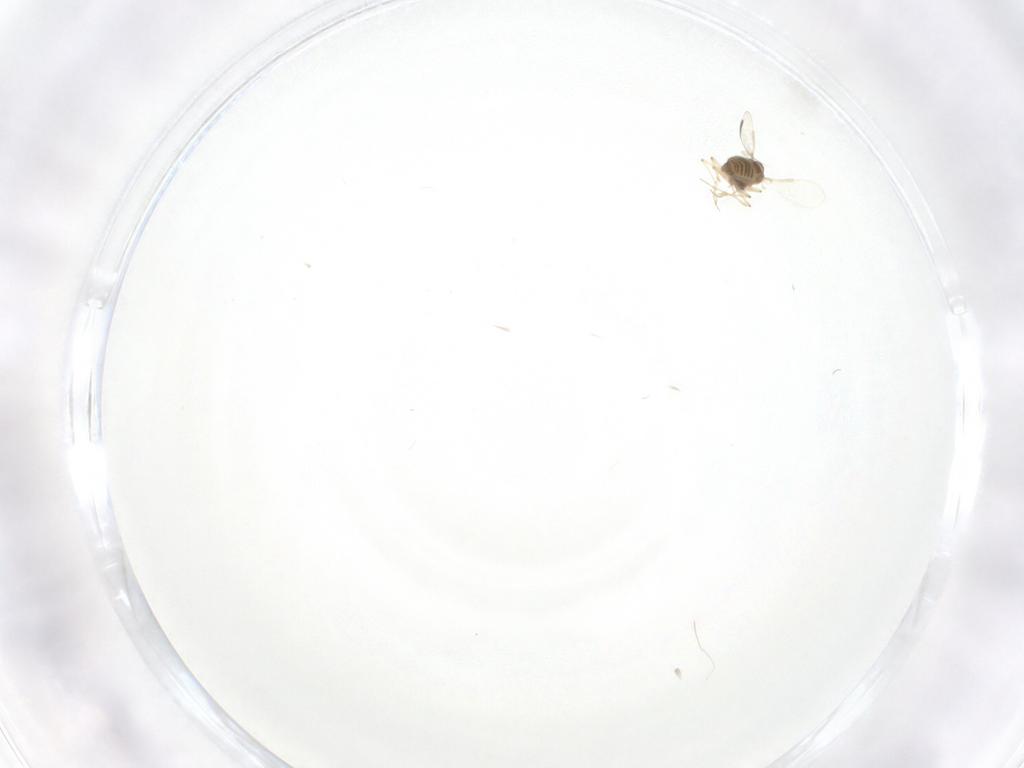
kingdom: Animalia
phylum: Arthropoda
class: Insecta
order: Diptera
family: Chironomidae
